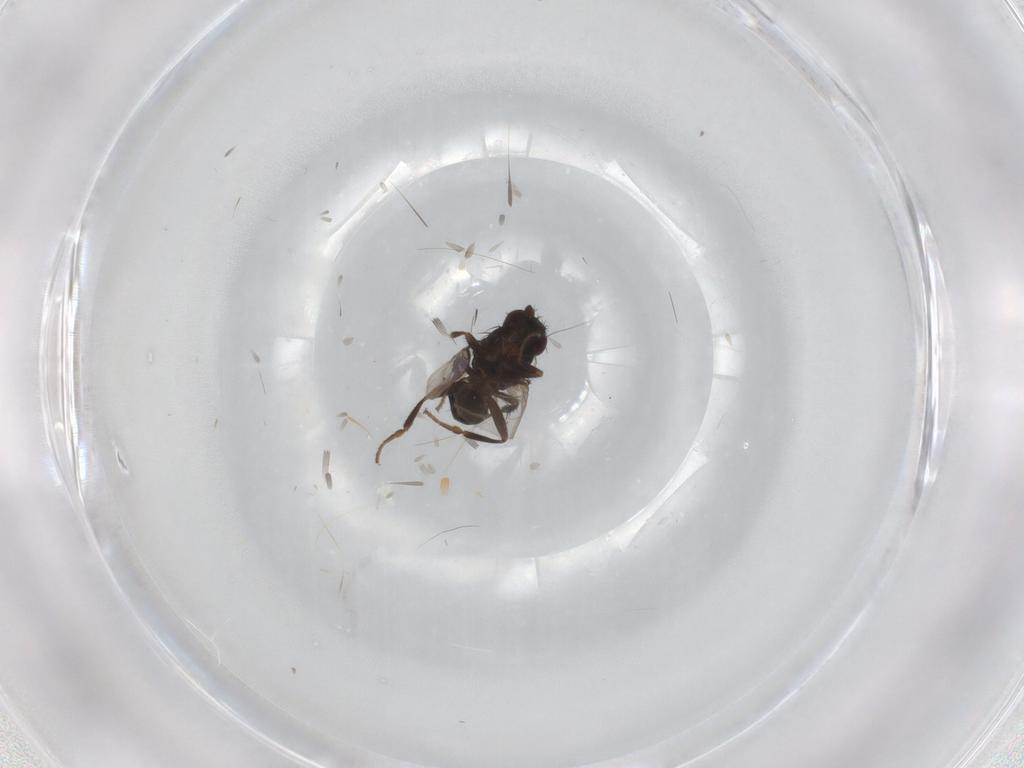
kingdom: Animalia
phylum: Arthropoda
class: Insecta
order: Diptera
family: Sphaeroceridae
